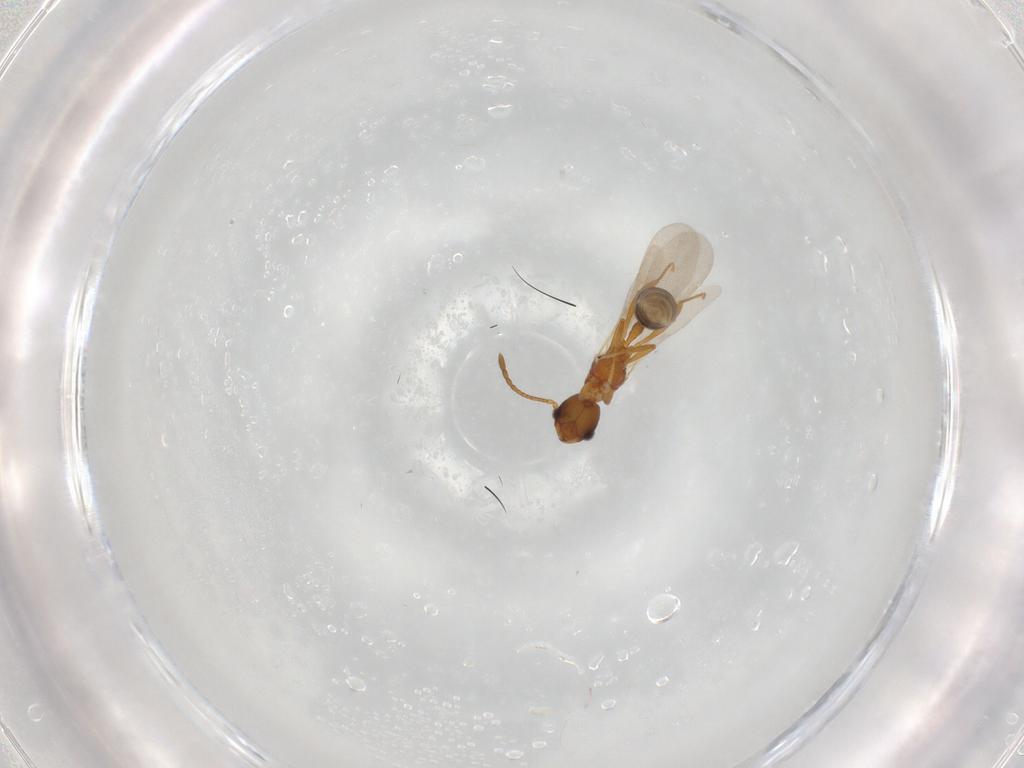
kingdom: Animalia
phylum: Arthropoda
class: Insecta
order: Hymenoptera
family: Formicidae
